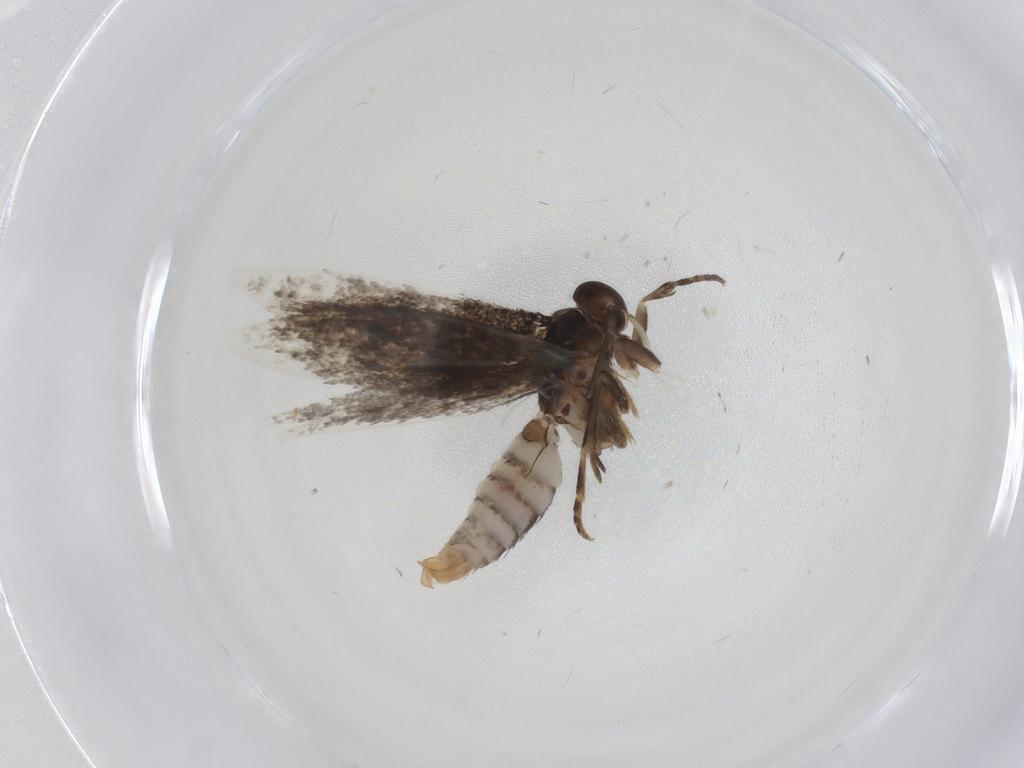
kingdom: Animalia
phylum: Arthropoda
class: Insecta
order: Lepidoptera
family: Elachistidae
